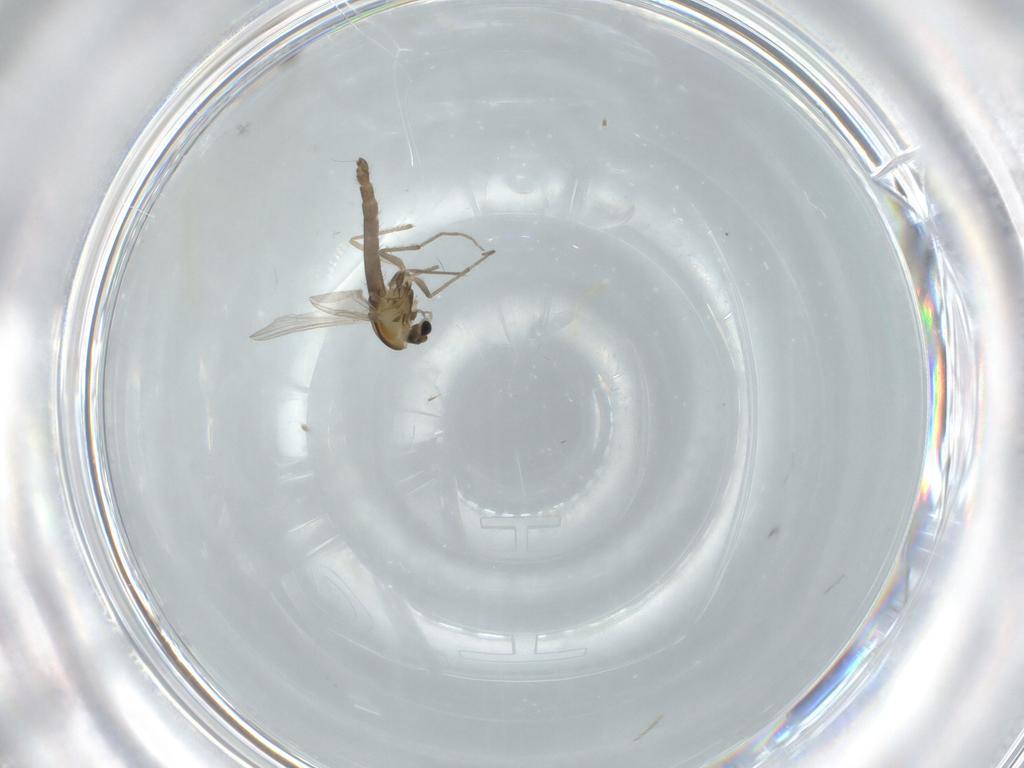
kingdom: Animalia
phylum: Arthropoda
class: Insecta
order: Diptera
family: Chironomidae
